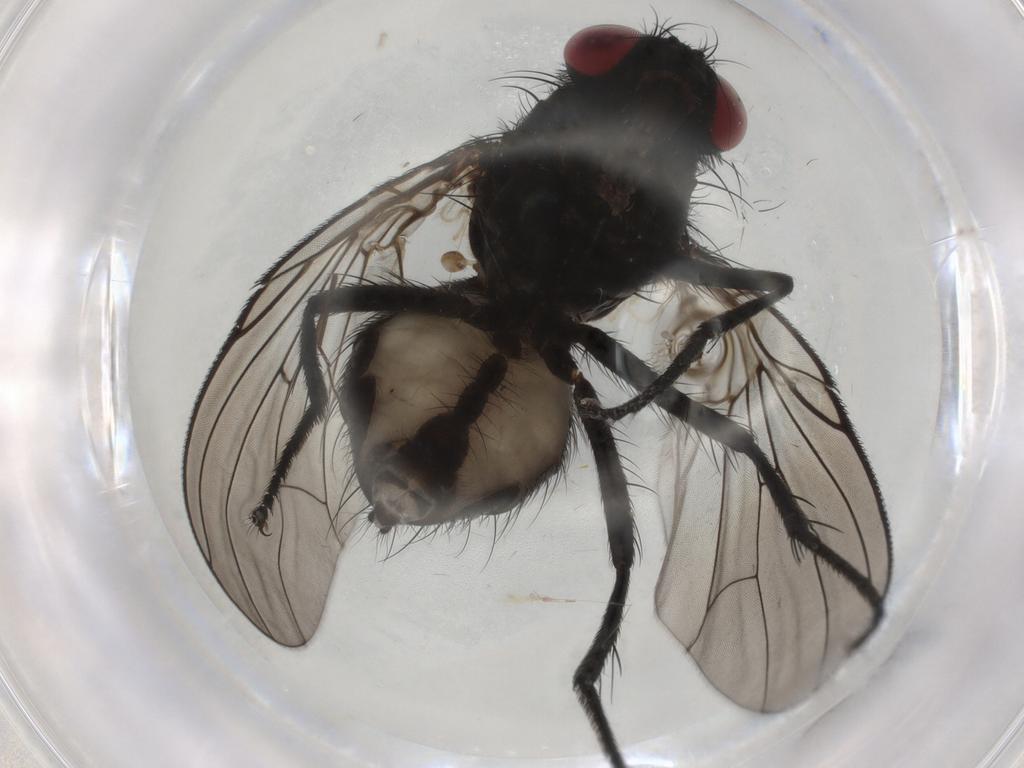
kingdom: Animalia
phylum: Arthropoda
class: Insecta
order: Diptera
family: Fannia
